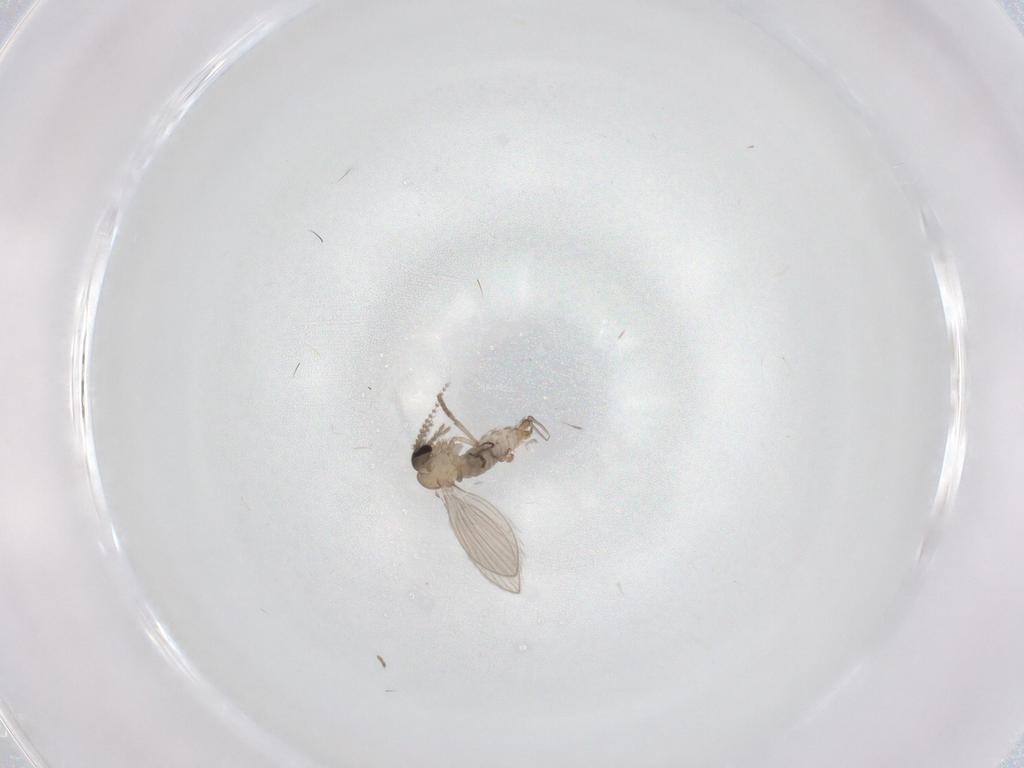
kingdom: Animalia
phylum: Arthropoda
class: Insecta
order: Diptera
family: Psychodidae
